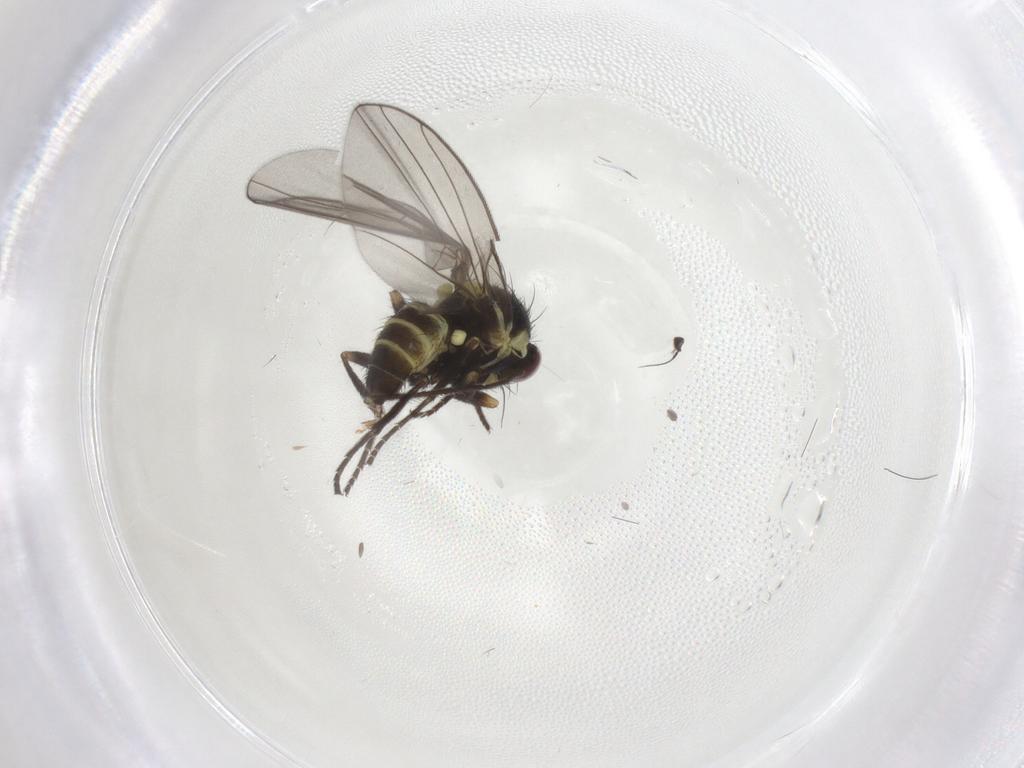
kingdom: Animalia
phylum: Arthropoda
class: Insecta
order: Diptera
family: Chironomidae
